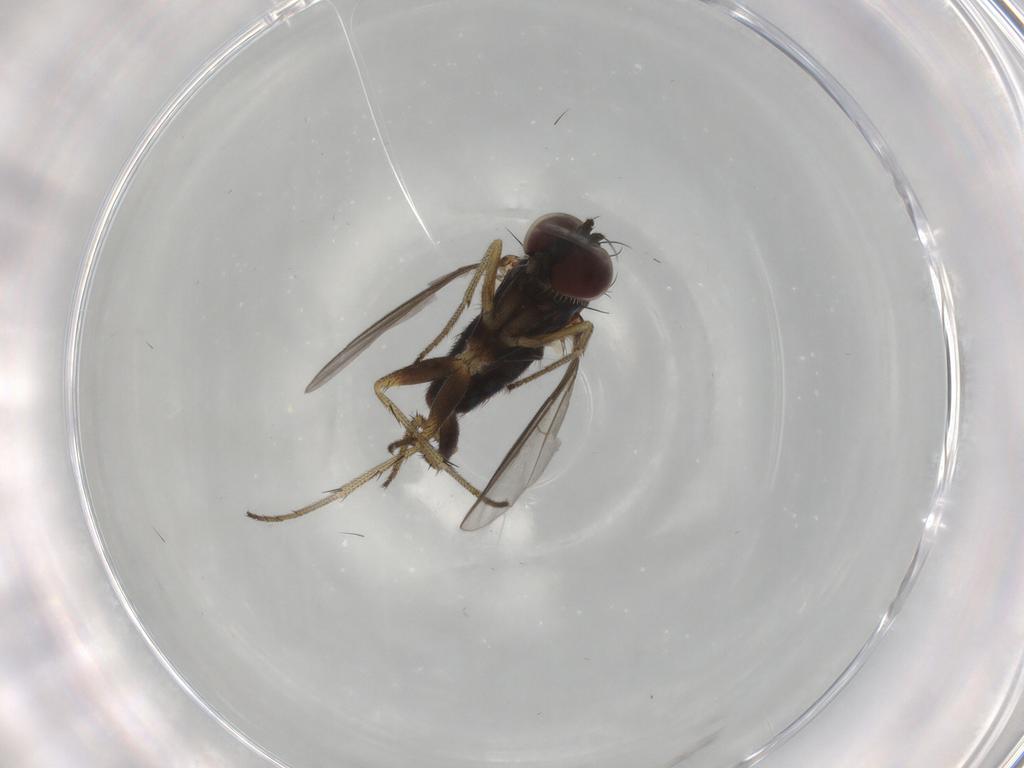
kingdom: Animalia
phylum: Arthropoda
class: Insecta
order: Diptera
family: Dolichopodidae
